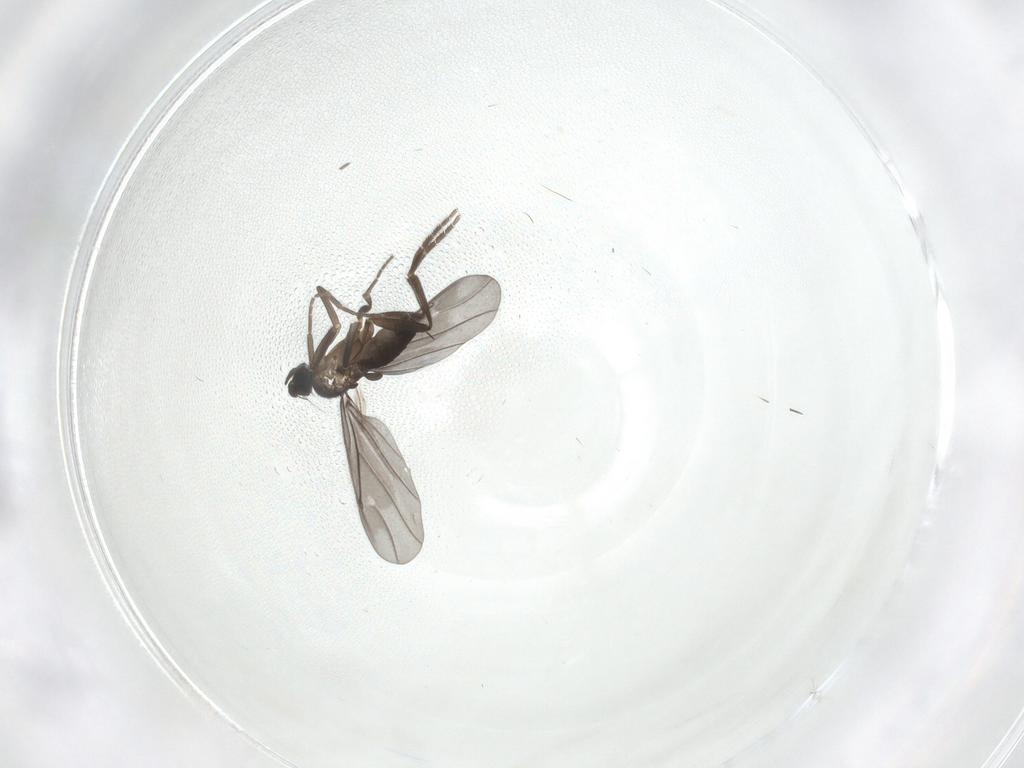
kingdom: Animalia
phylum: Arthropoda
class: Insecta
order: Diptera
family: Phoridae
